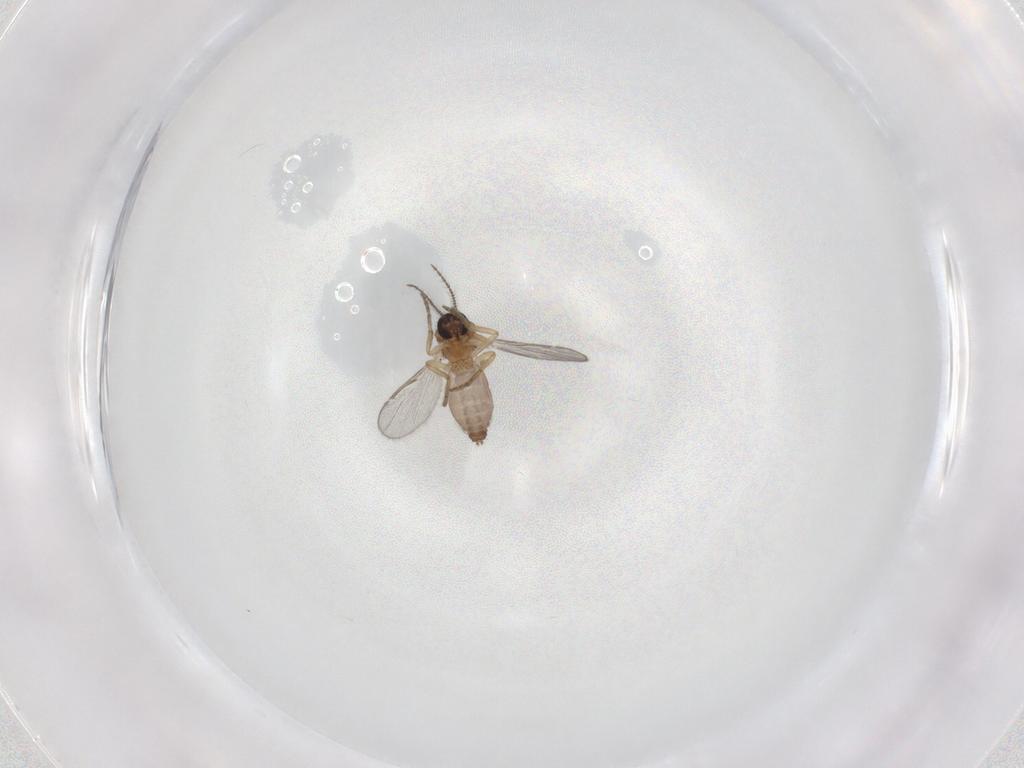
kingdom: Animalia
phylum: Arthropoda
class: Insecta
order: Diptera
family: Chironomidae
